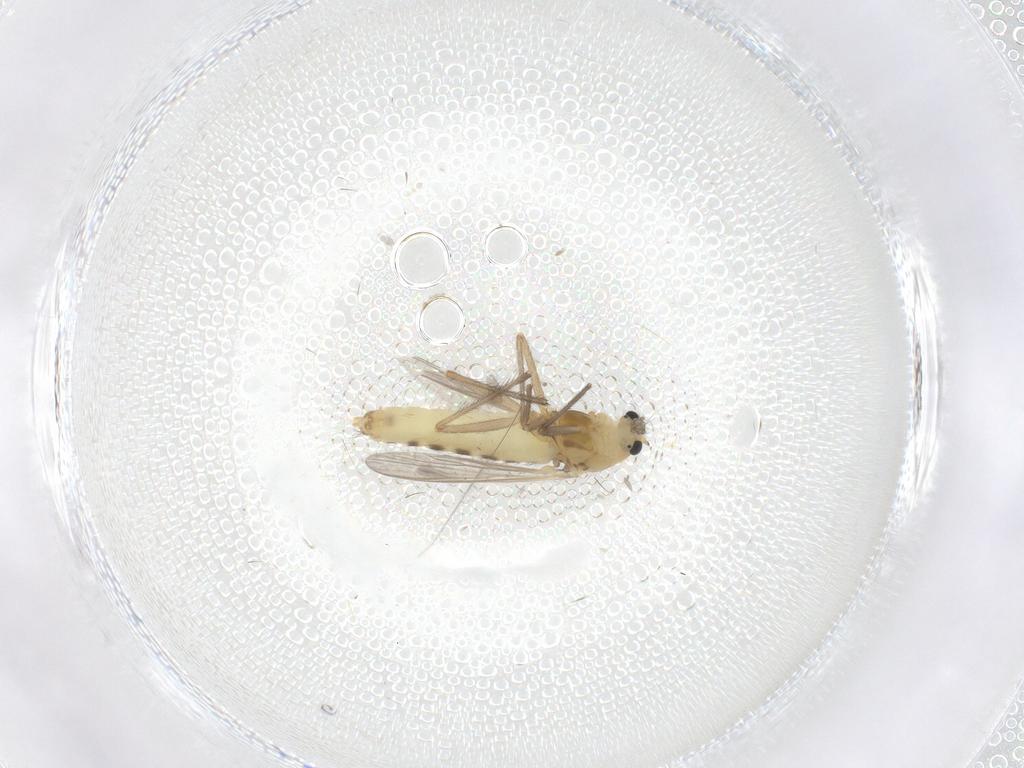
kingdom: Animalia
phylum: Arthropoda
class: Insecta
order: Diptera
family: Chironomidae
